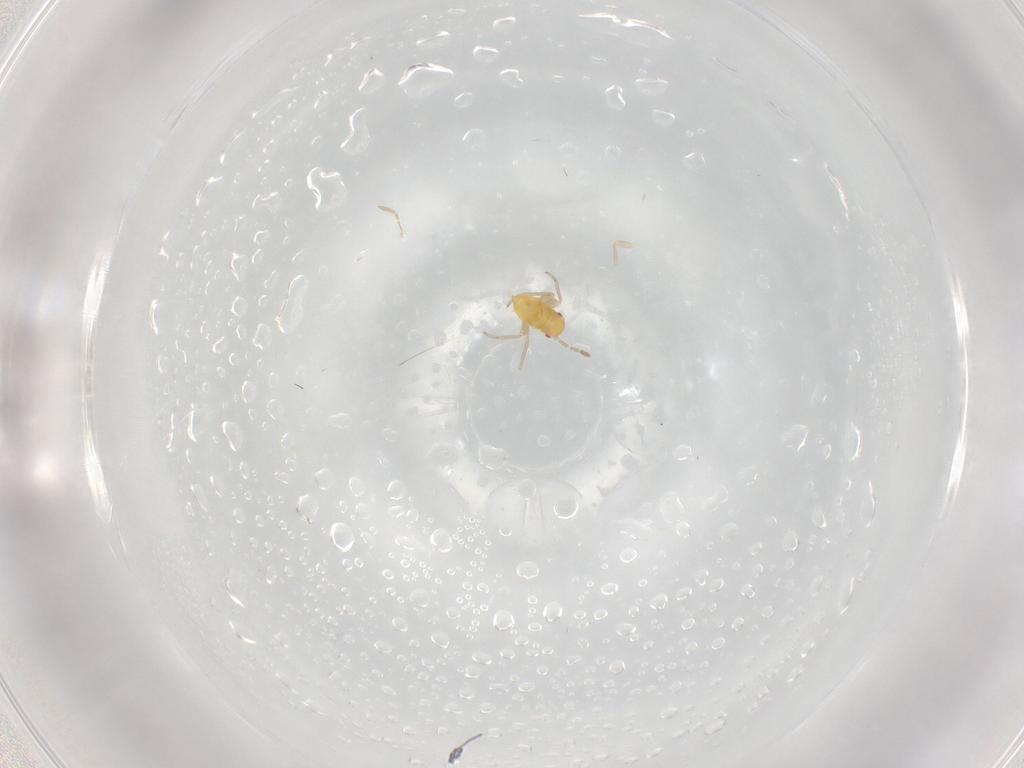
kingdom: Animalia
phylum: Arthropoda
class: Insecta
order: Hemiptera
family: Miridae
